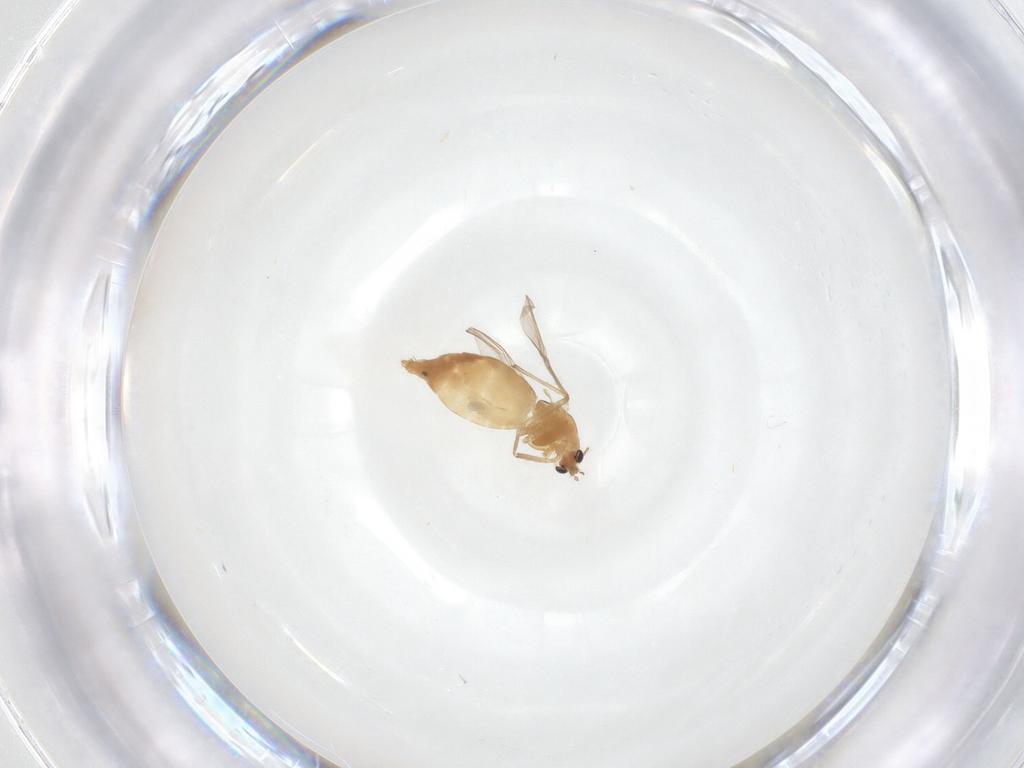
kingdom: Animalia
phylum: Arthropoda
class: Insecta
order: Diptera
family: Chironomidae
